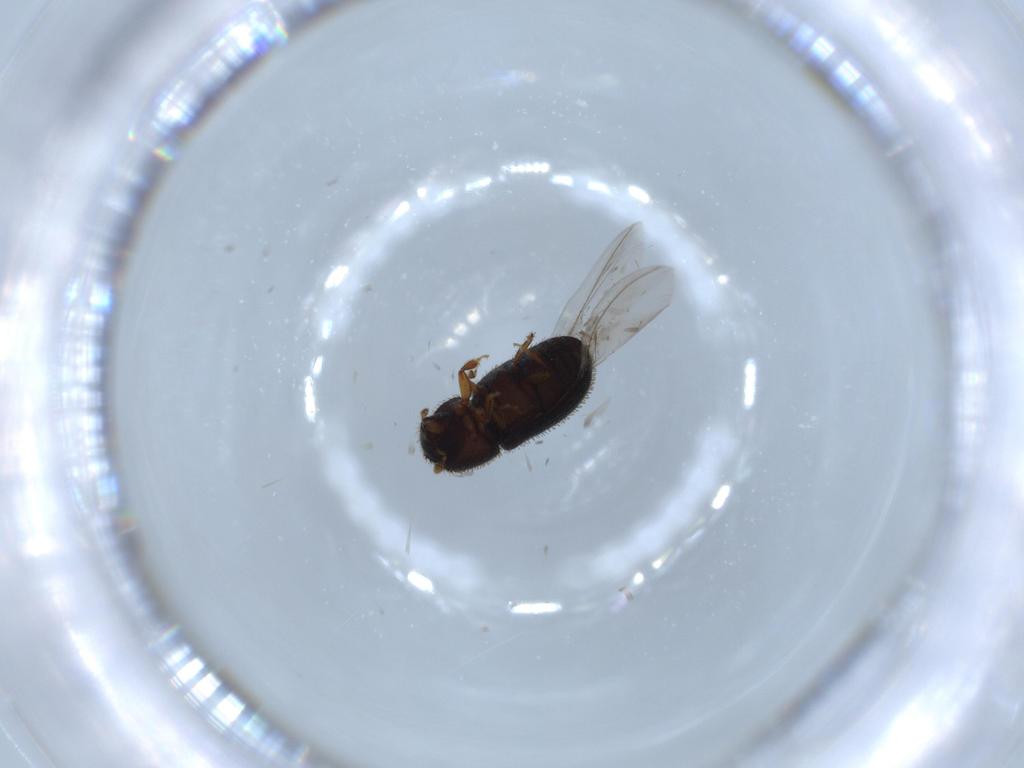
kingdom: Animalia
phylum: Arthropoda
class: Insecta
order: Coleoptera
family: Curculionidae
